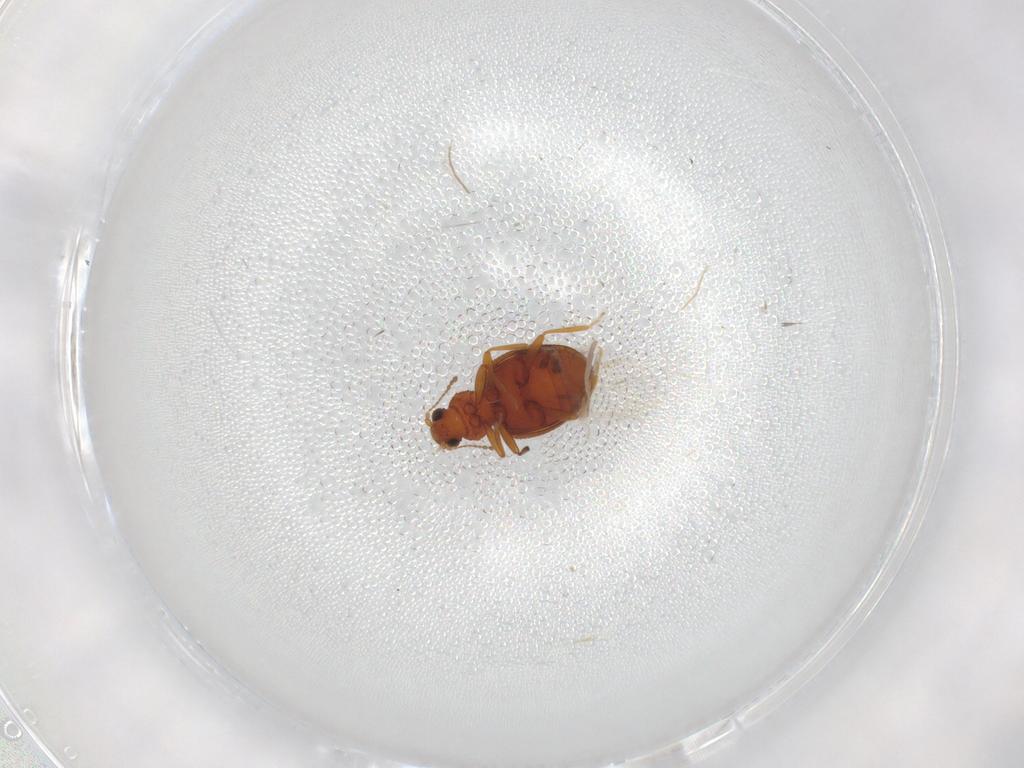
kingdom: Animalia
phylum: Arthropoda
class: Insecta
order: Coleoptera
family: Latridiidae
